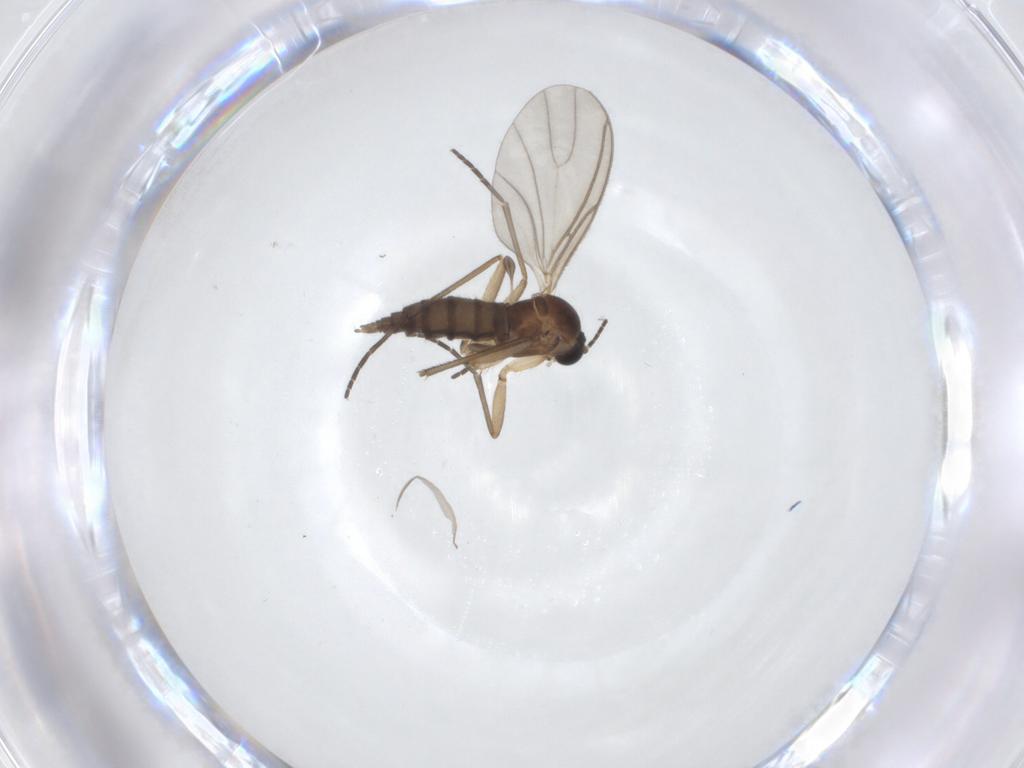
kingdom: Animalia
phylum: Arthropoda
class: Insecta
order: Diptera
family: Sciaridae
